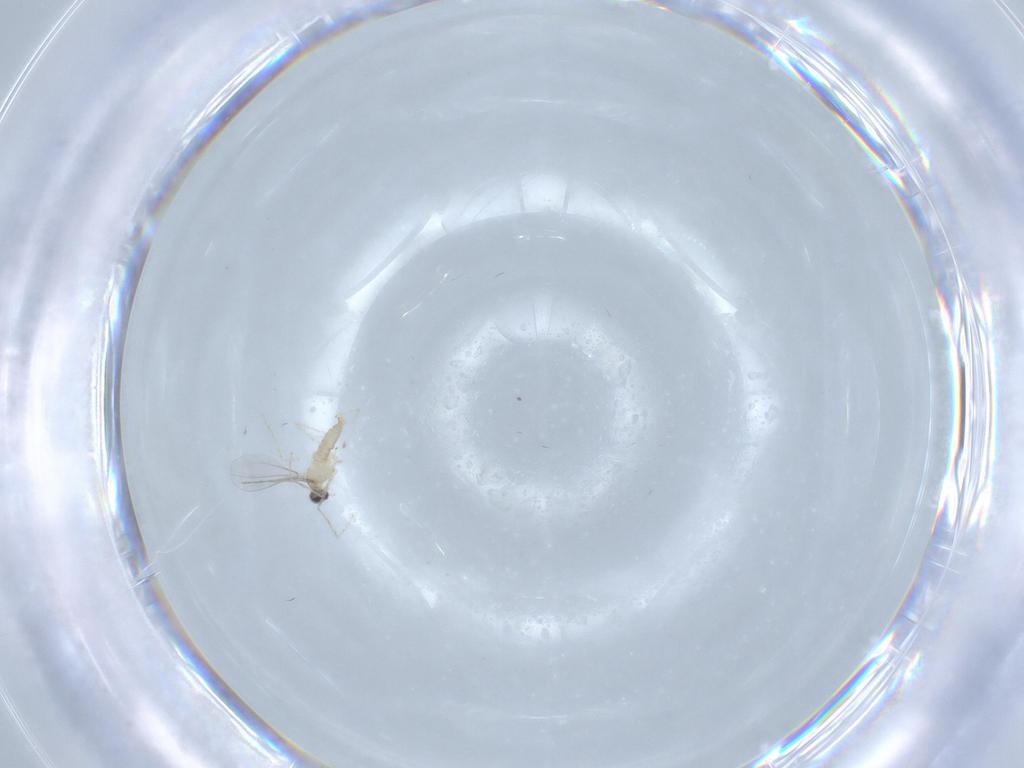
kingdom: Animalia
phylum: Arthropoda
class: Insecta
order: Diptera
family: Cecidomyiidae
